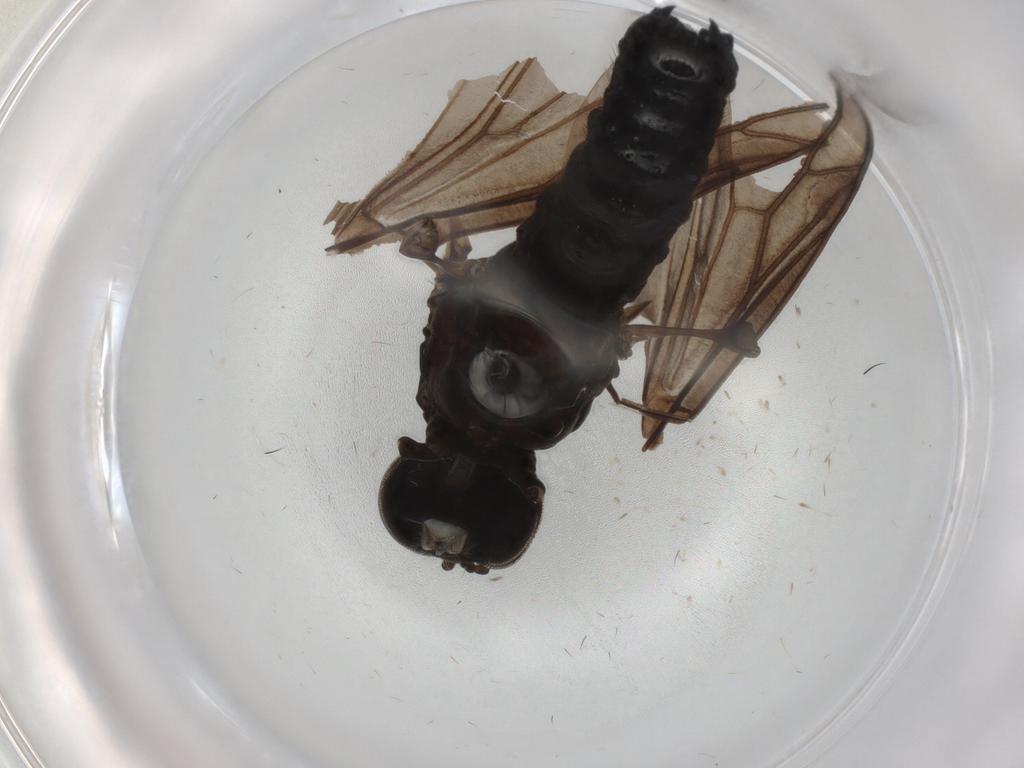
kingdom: Animalia
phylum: Arthropoda
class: Insecta
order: Diptera
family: Cecidomyiidae
